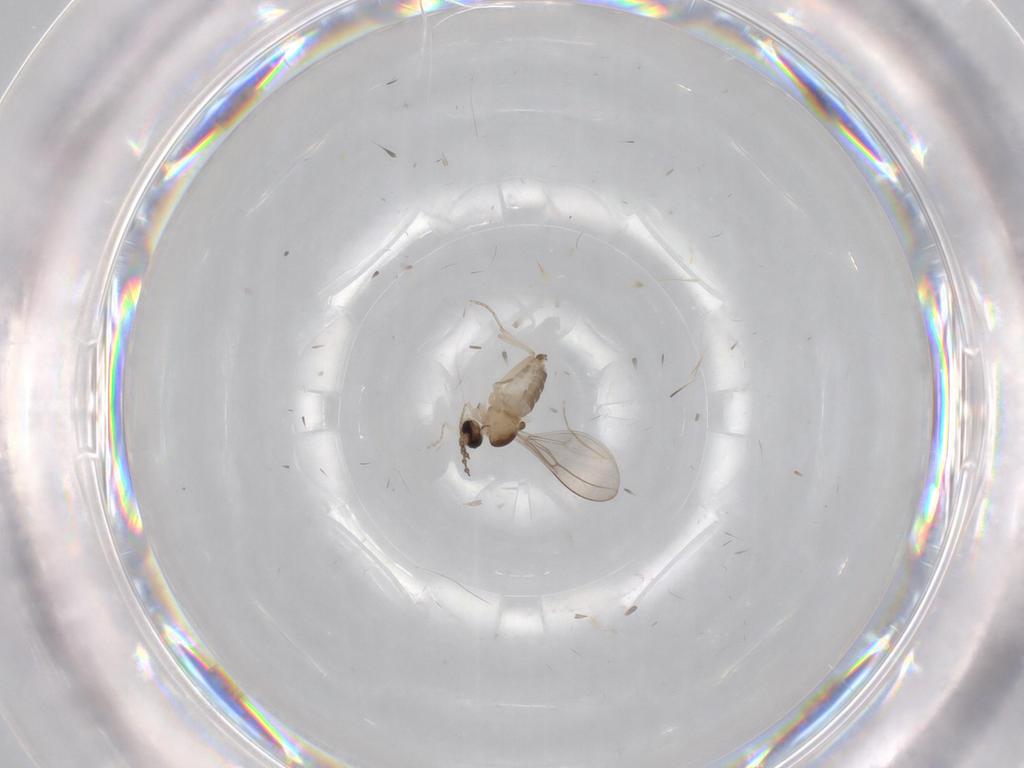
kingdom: Animalia
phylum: Arthropoda
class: Insecta
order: Diptera
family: Cecidomyiidae
